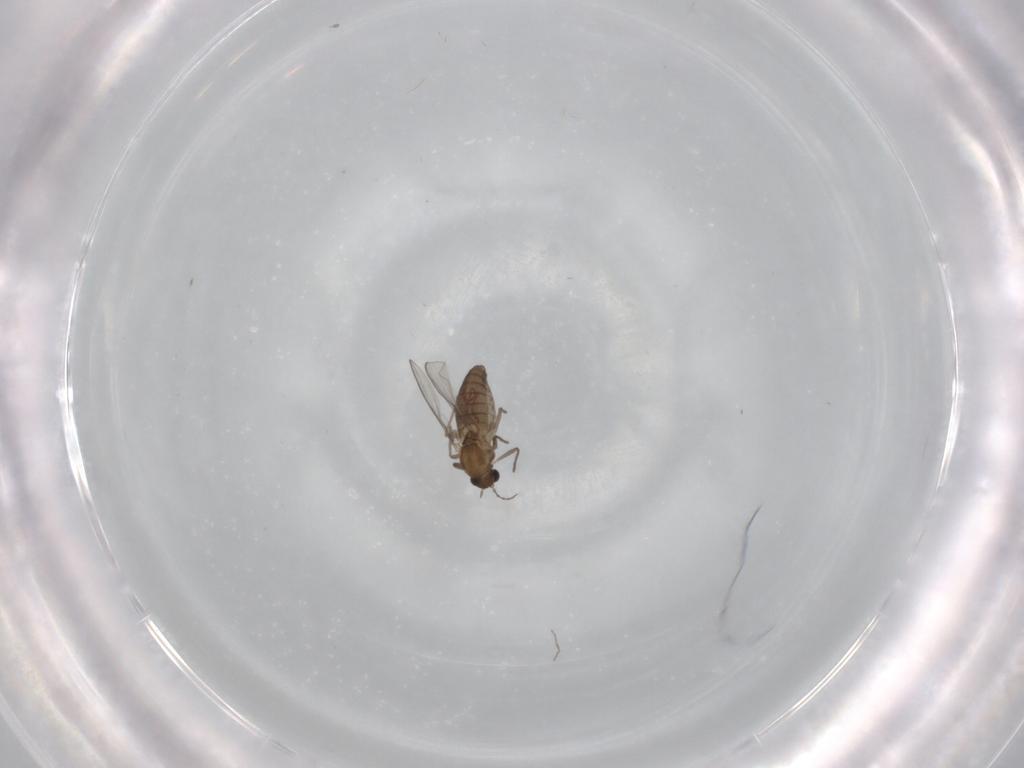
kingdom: Animalia
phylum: Arthropoda
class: Insecta
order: Diptera
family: Chironomidae
